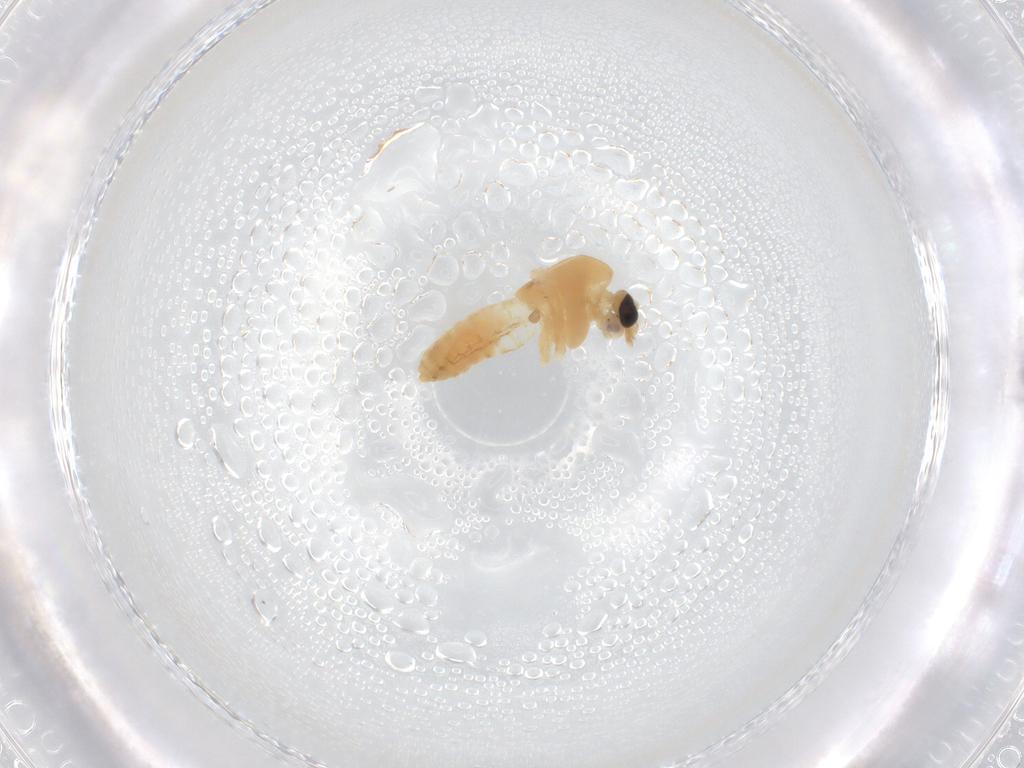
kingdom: Animalia
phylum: Arthropoda
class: Insecta
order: Diptera
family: Chironomidae
